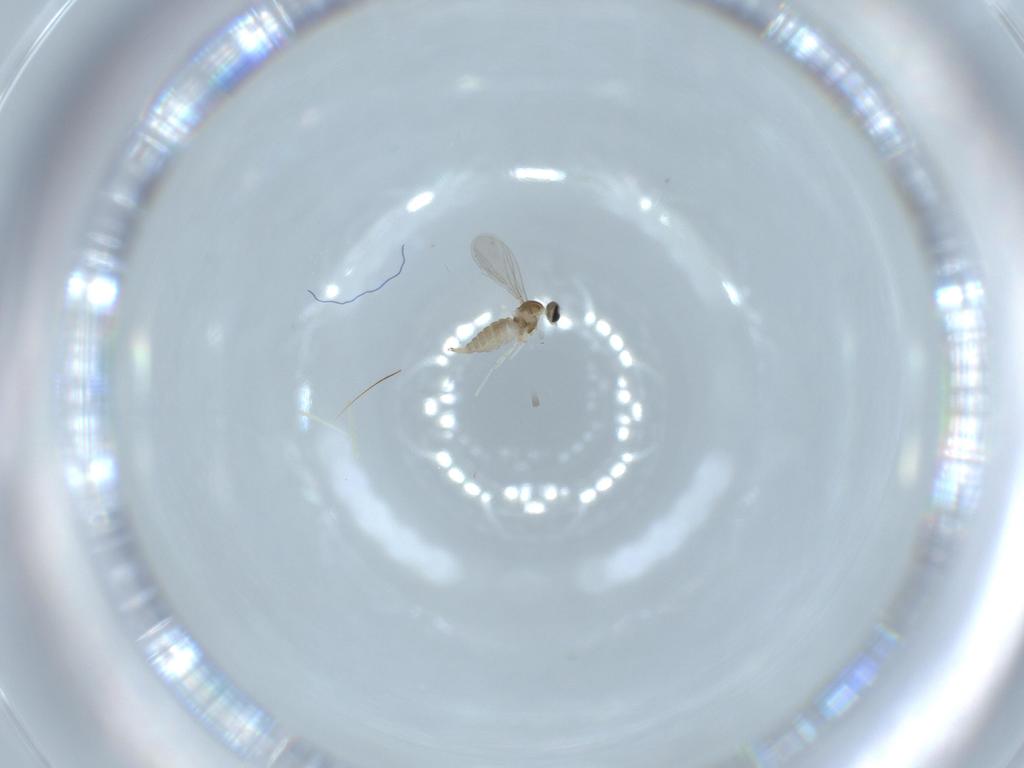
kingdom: Animalia
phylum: Arthropoda
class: Insecta
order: Diptera
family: Cecidomyiidae
